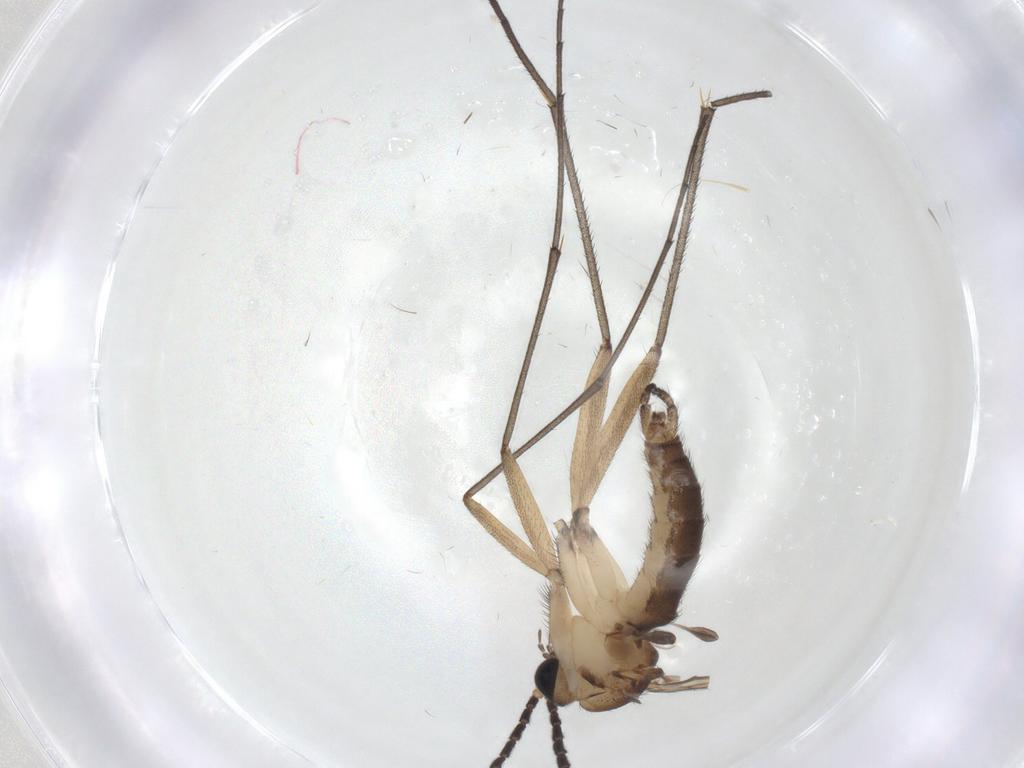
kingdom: Animalia
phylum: Arthropoda
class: Insecta
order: Diptera
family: Sciaridae
